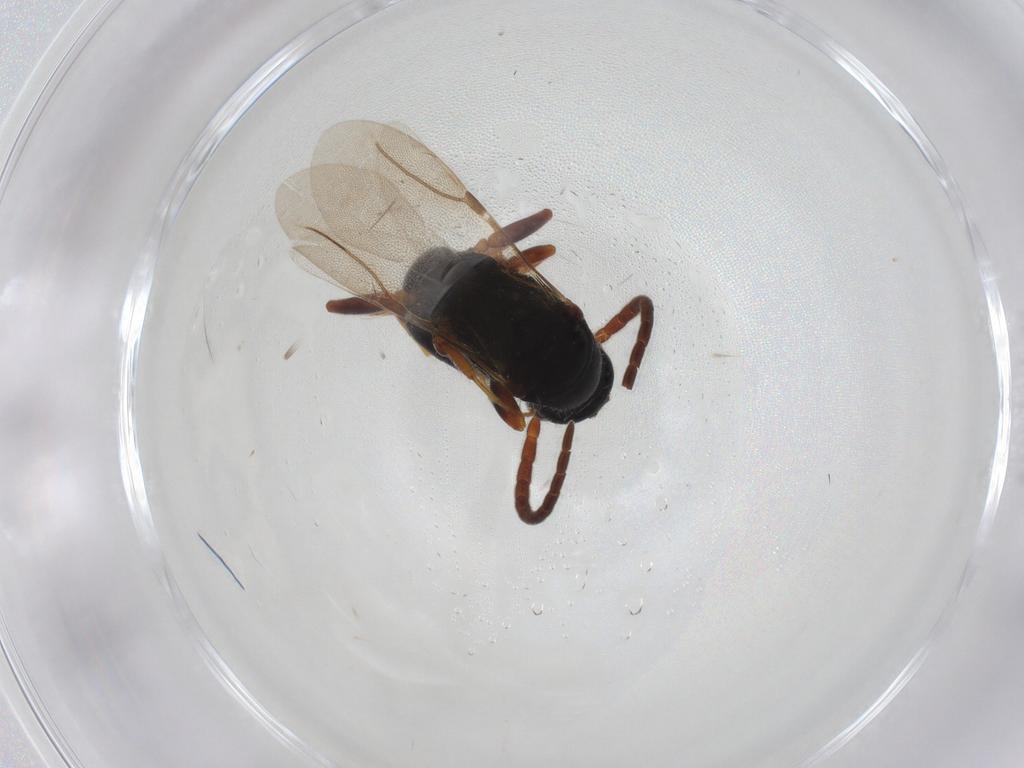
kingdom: Animalia
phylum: Arthropoda
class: Insecta
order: Hymenoptera
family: Bethylidae
